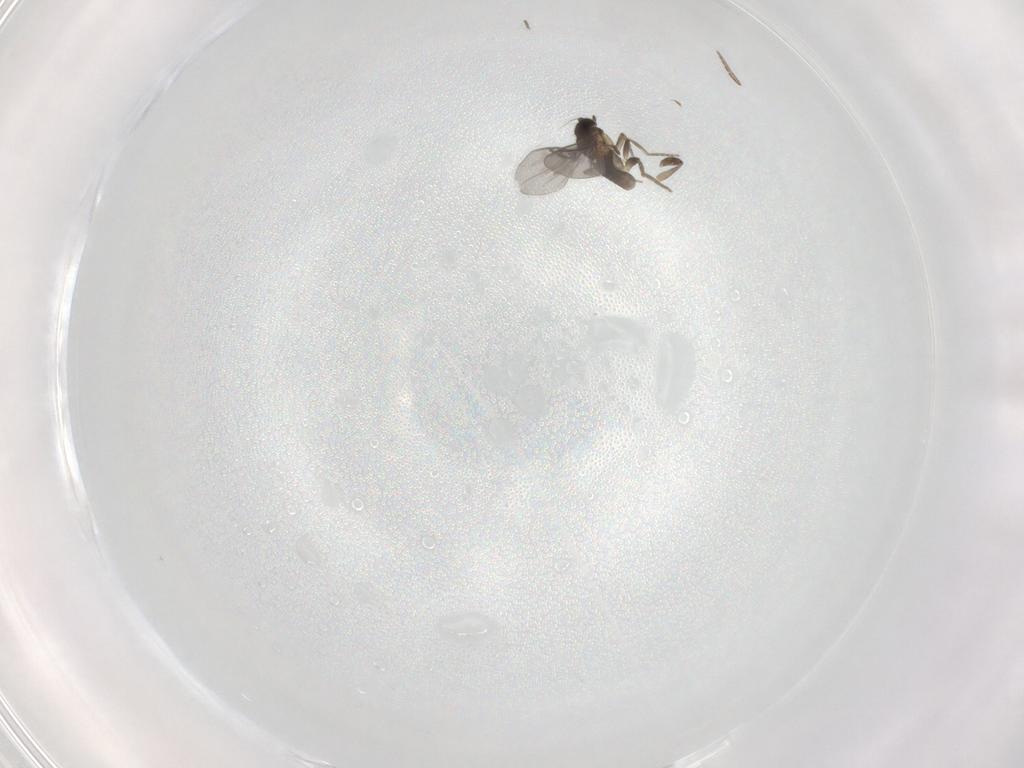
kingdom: Animalia
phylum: Arthropoda
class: Insecta
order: Diptera
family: Phoridae
